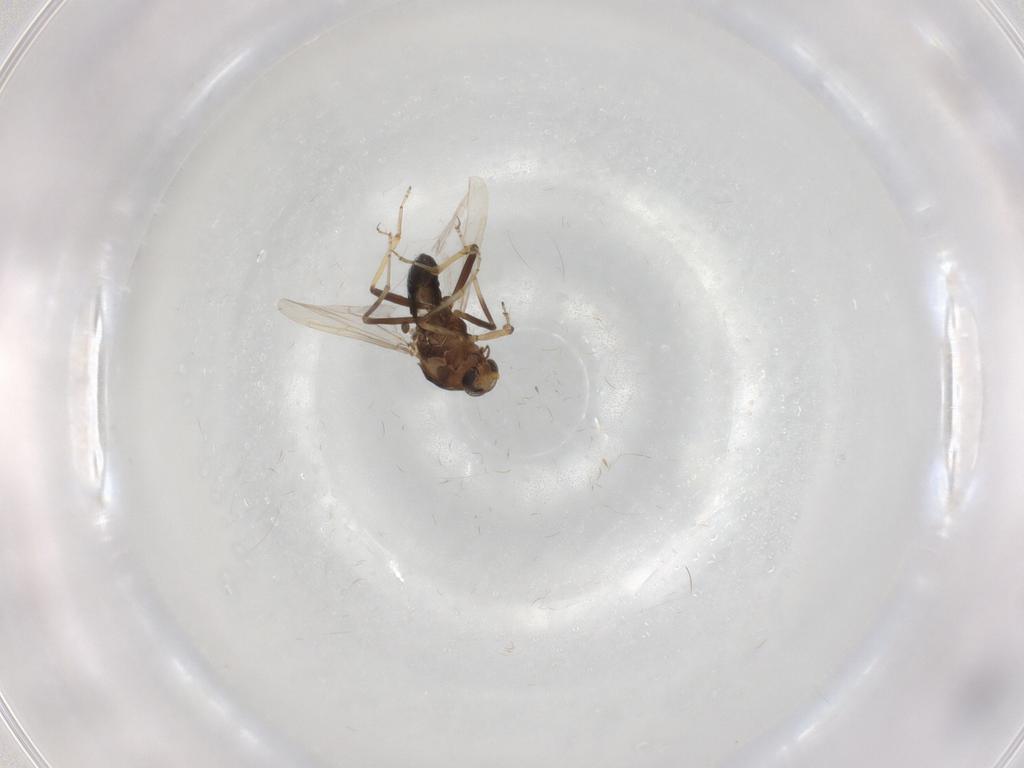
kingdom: Animalia
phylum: Arthropoda
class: Insecta
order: Diptera
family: Ceratopogonidae
